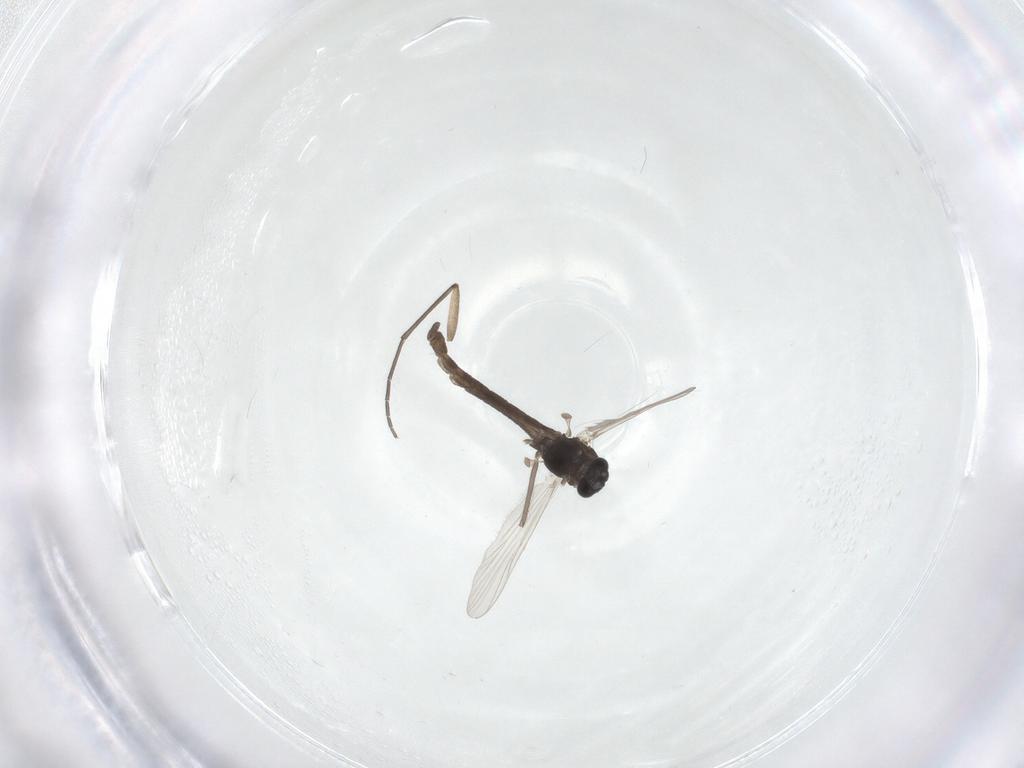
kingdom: Animalia
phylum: Arthropoda
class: Insecta
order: Diptera
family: Chironomidae
